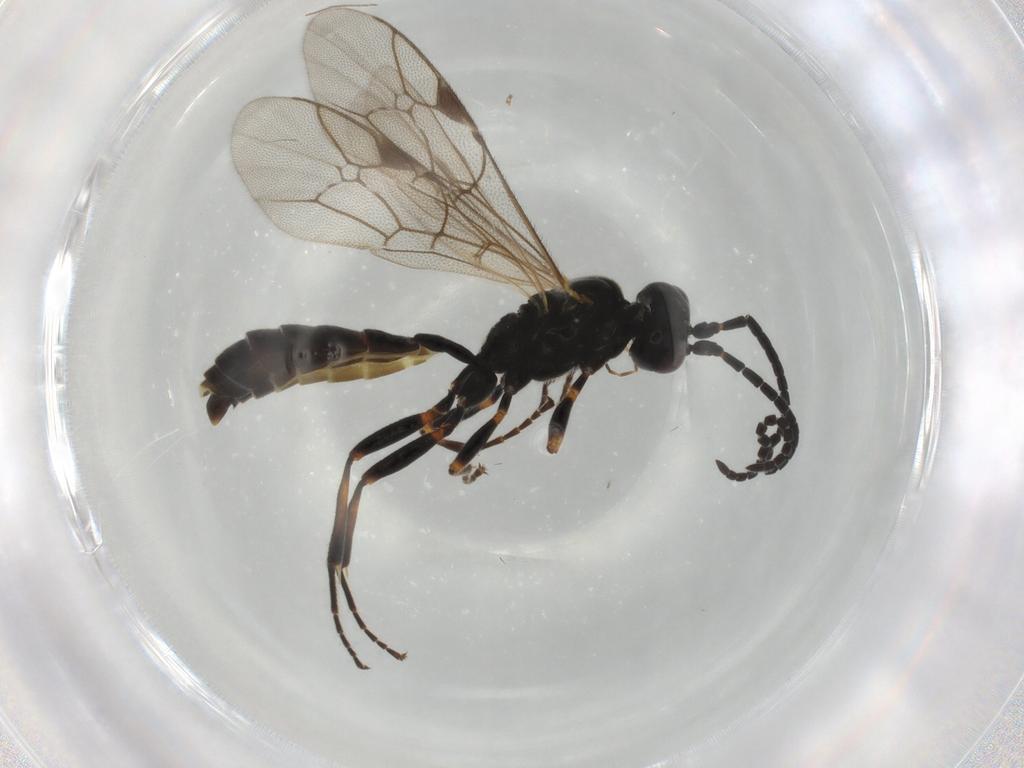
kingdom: Animalia
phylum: Arthropoda
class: Insecta
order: Hymenoptera
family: Ichneumonidae
